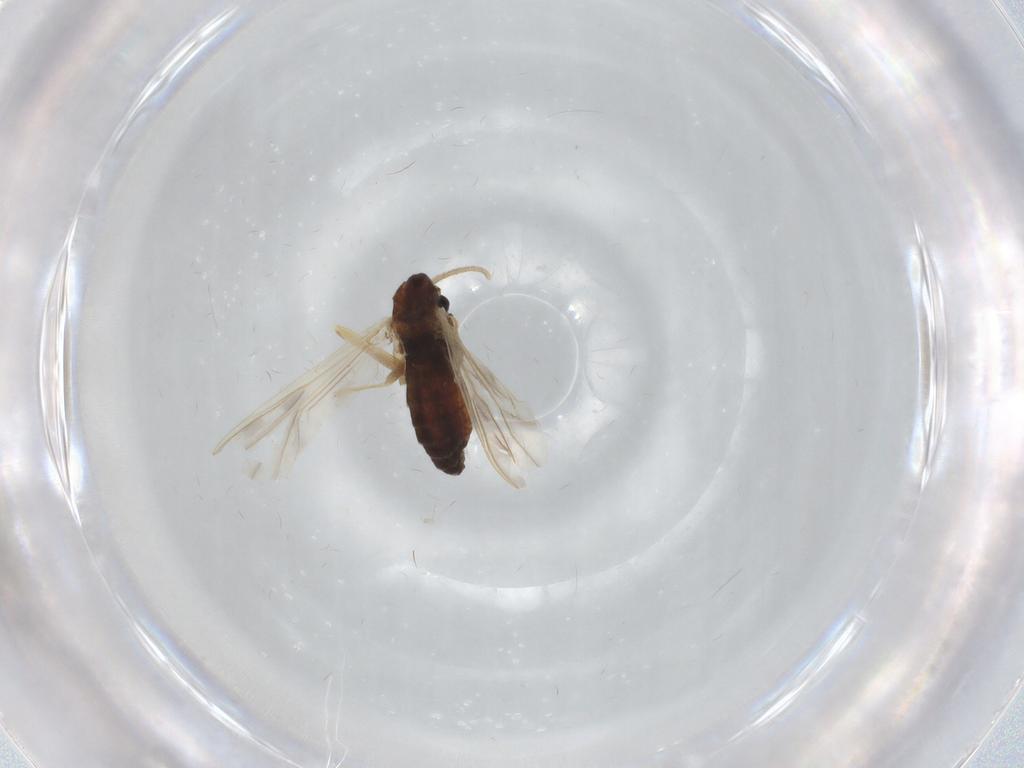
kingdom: Animalia
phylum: Arthropoda
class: Insecta
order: Diptera
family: Chironomidae
